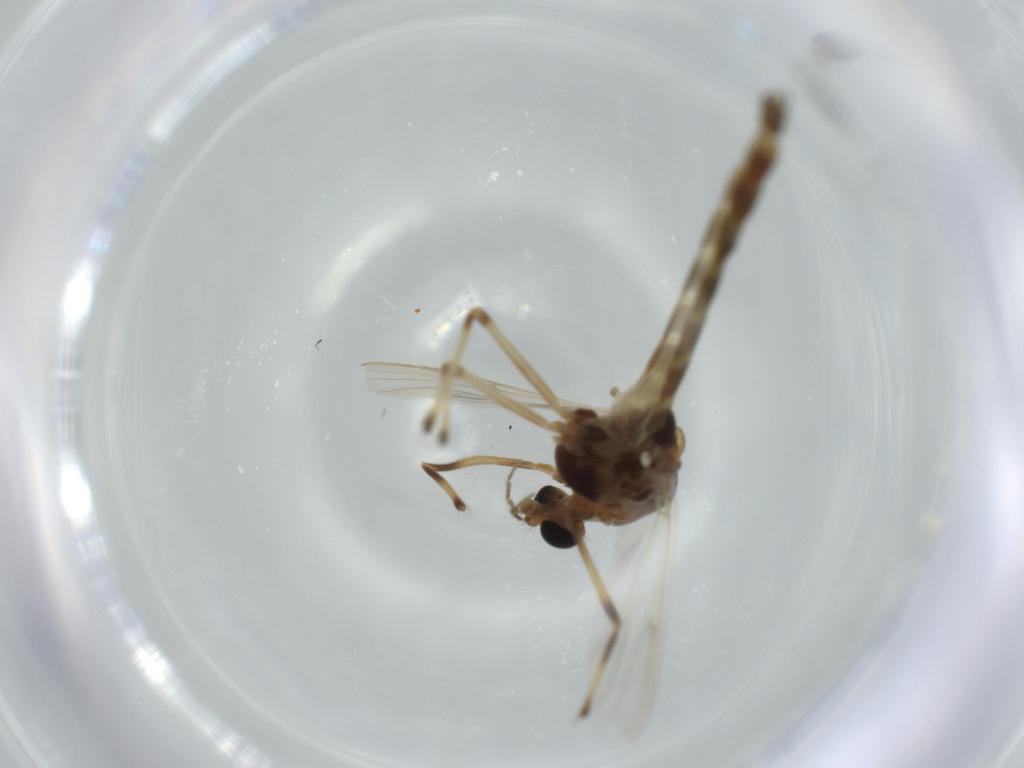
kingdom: Animalia
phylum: Arthropoda
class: Insecta
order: Diptera
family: Chironomidae
